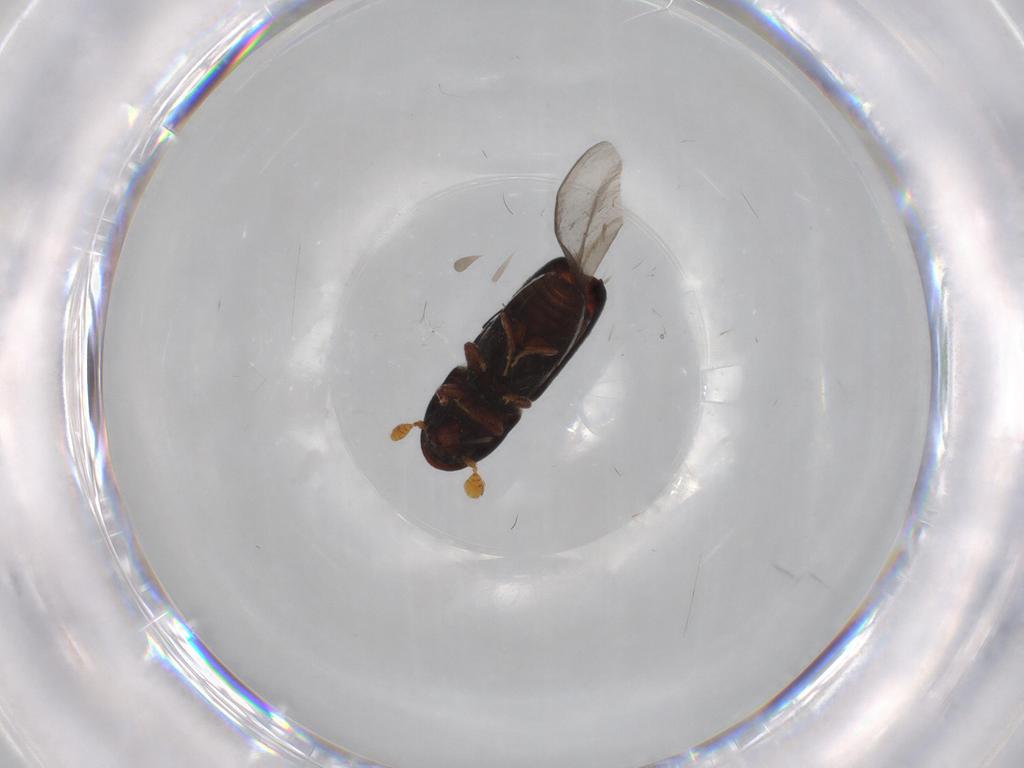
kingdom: Animalia
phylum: Arthropoda
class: Insecta
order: Coleoptera
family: Curculionidae
